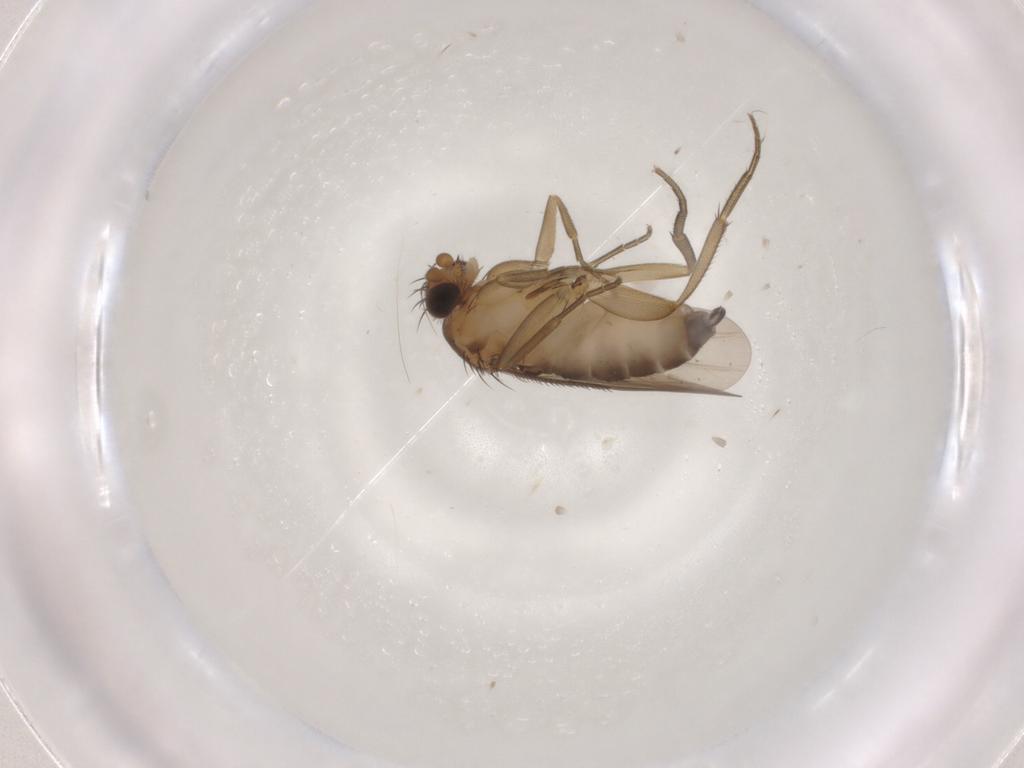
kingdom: Animalia
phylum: Arthropoda
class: Insecta
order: Diptera
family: Phoridae
